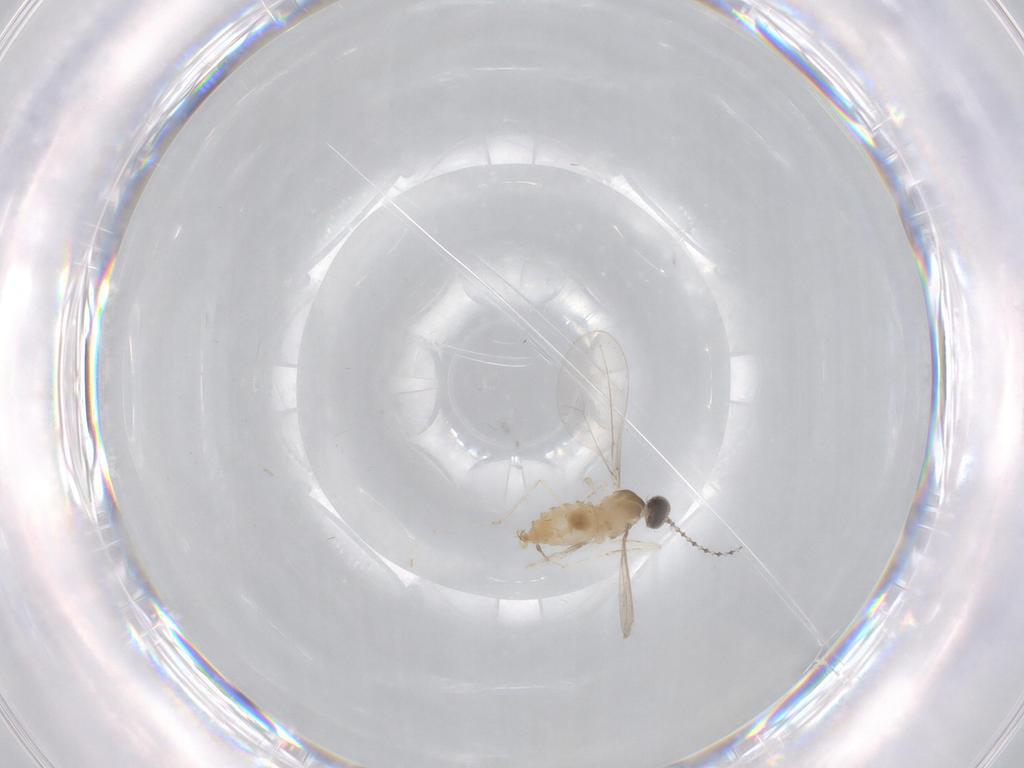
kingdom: Animalia
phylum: Arthropoda
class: Insecta
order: Diptera
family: Cecidomyiidae
